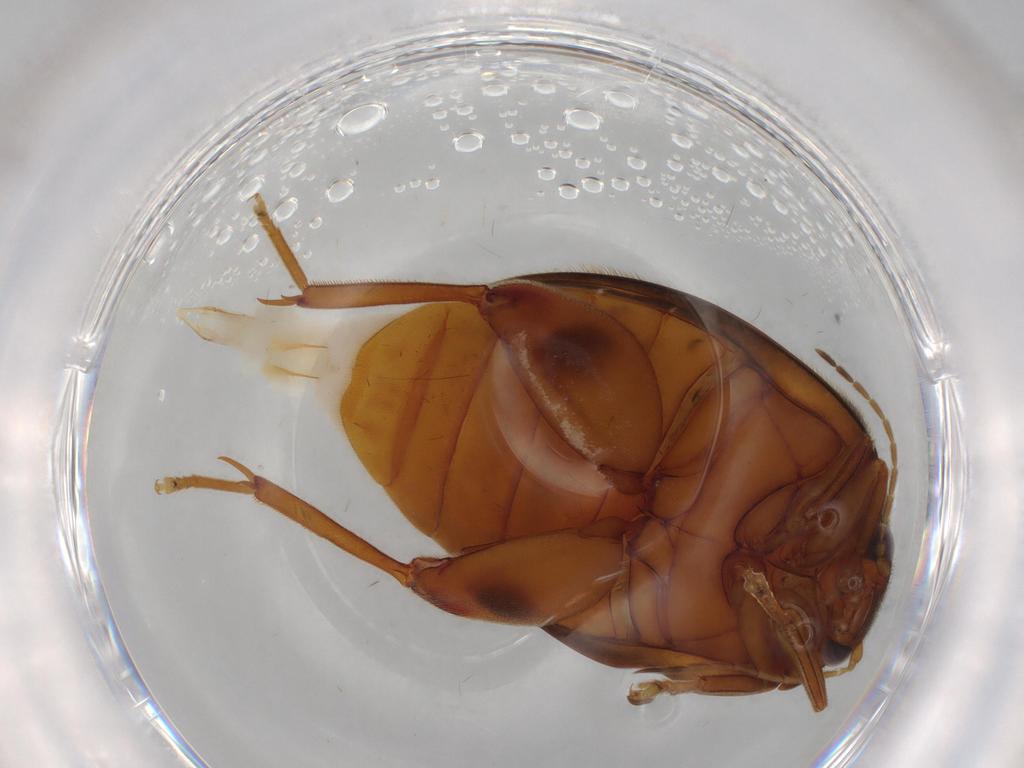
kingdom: Animalia
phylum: Arthropoda
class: Insecta
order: Coleoptera
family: Scirtidae
